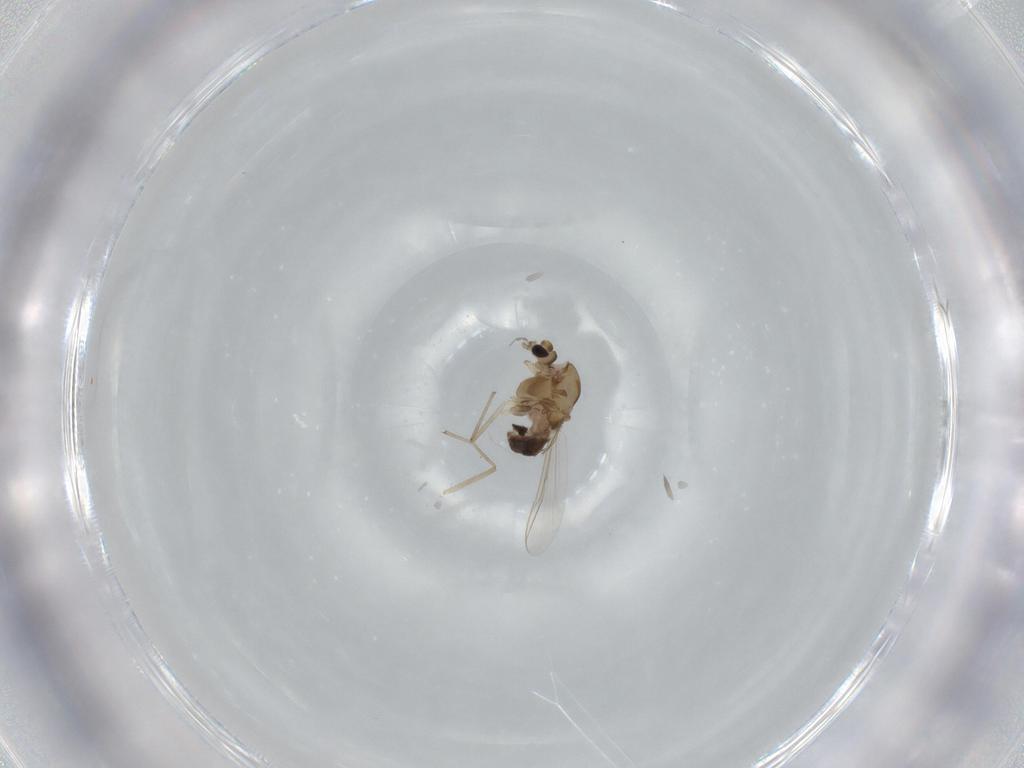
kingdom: Animalia
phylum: Arthropoda
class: Insecta
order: Diptera
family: Chironomidae
